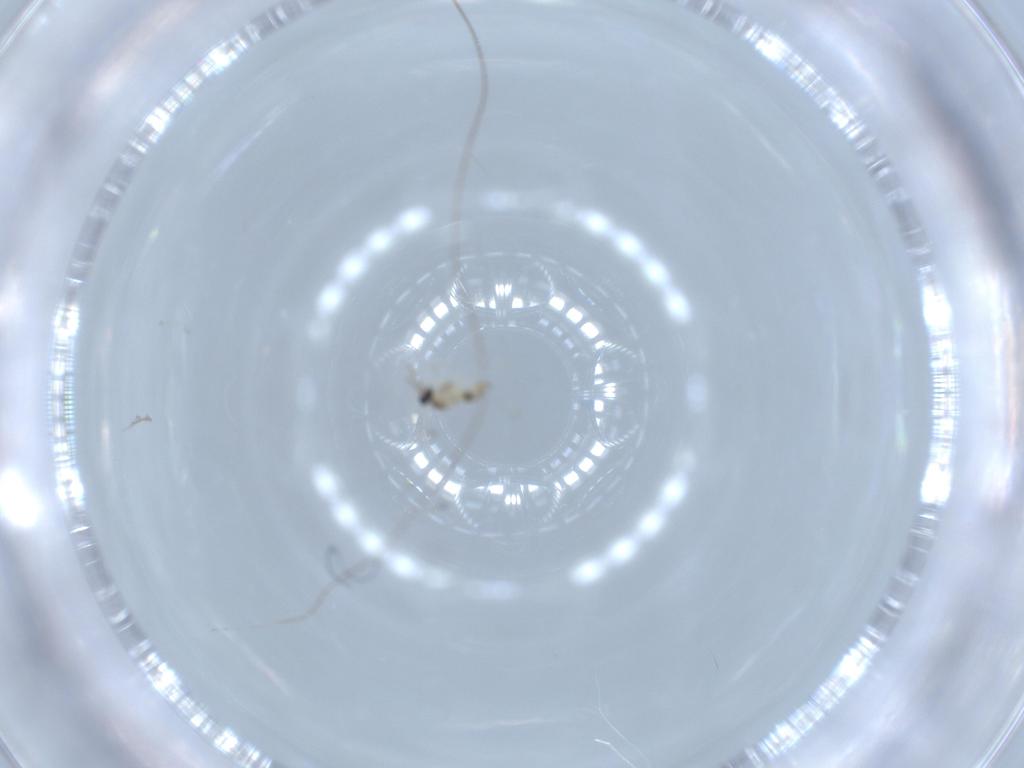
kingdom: Animalia
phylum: Arthropoda
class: Insecta
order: Diptera
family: Cecidomyiidae
